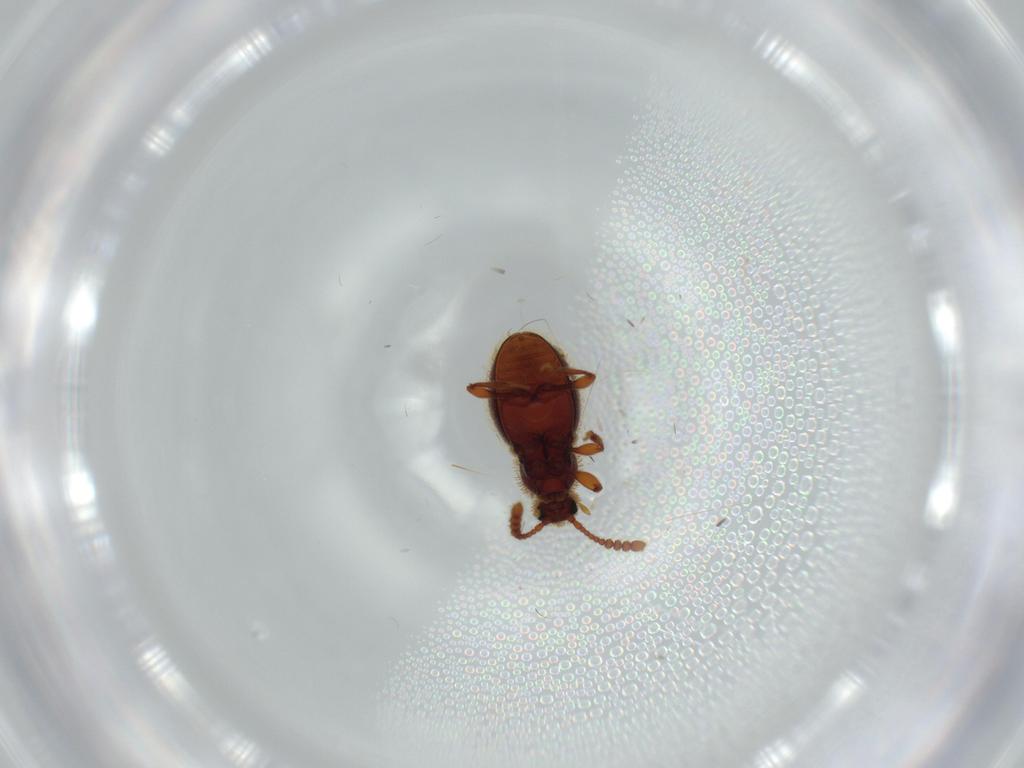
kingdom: Animalia
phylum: Arthropoda
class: Insecta
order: Coleoptera
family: Staphylinidae
